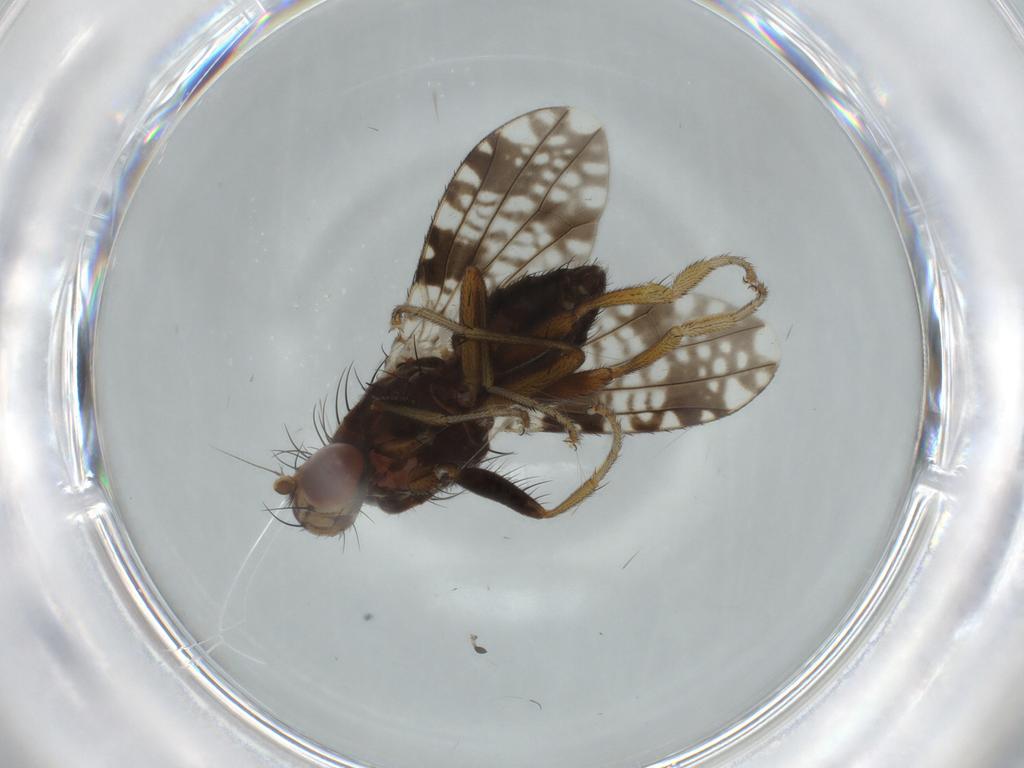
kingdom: Animalia
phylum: Arthropoda
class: Insecta
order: Diptera
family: Tephritidae
